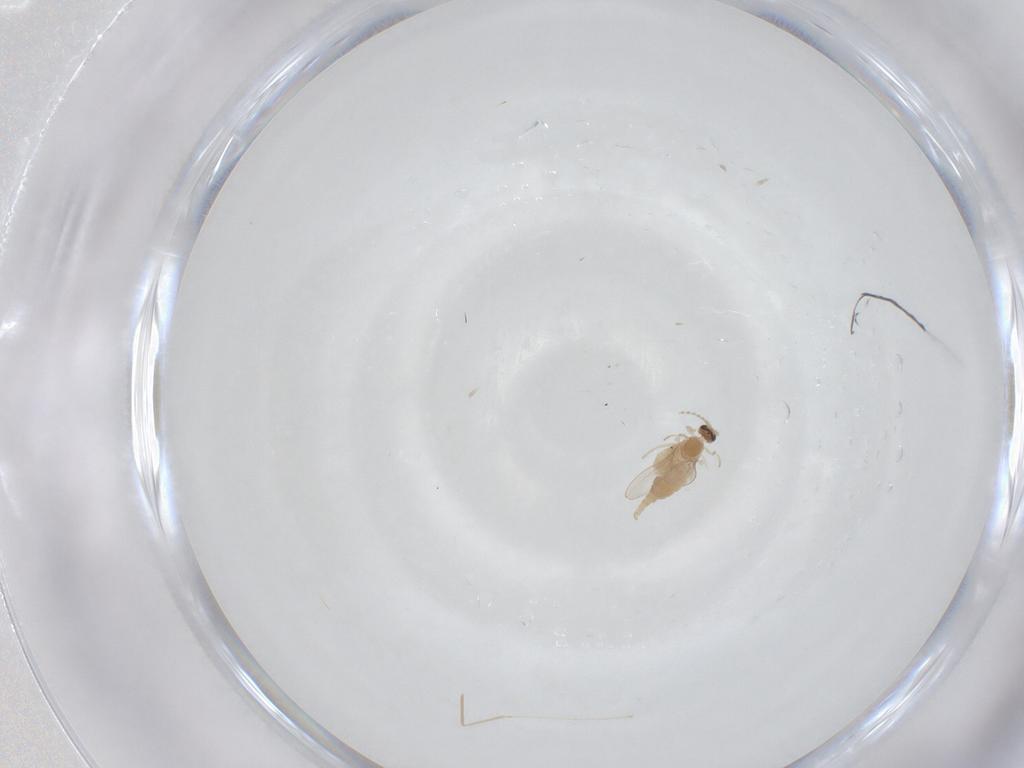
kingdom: Animalia
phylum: Arthropoda
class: Insecta
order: Diptera
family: Cecidomyiidae
